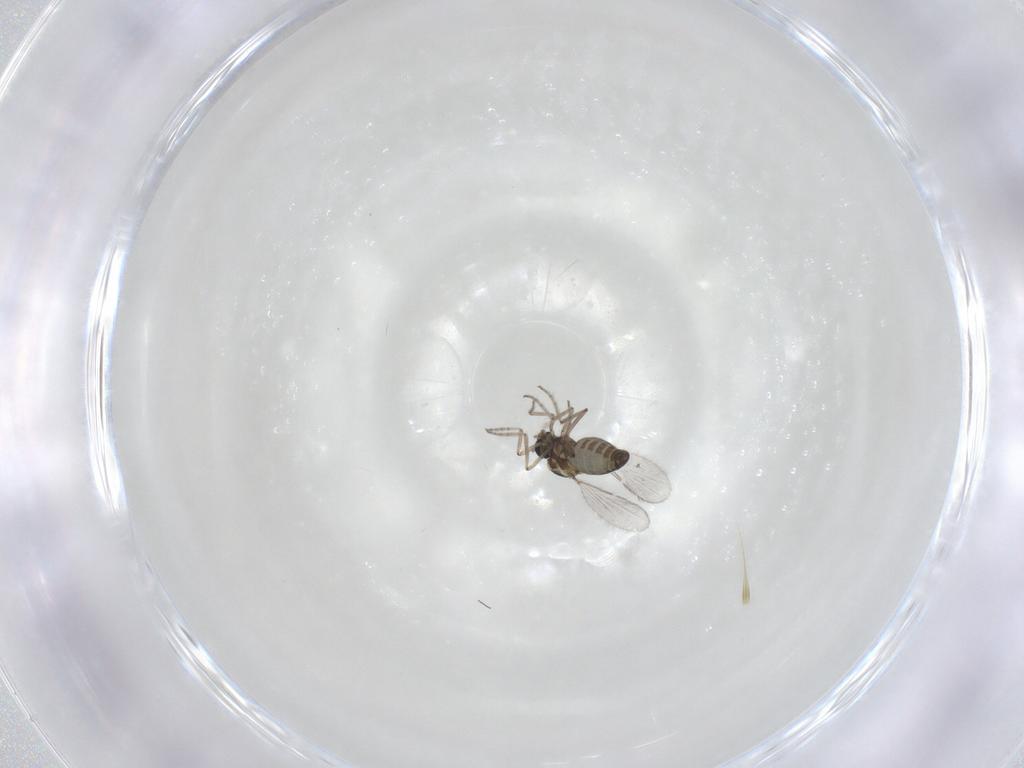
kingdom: Animalia
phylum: Arthropoda
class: Insecta
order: Diptera
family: Ceratopogonidae
